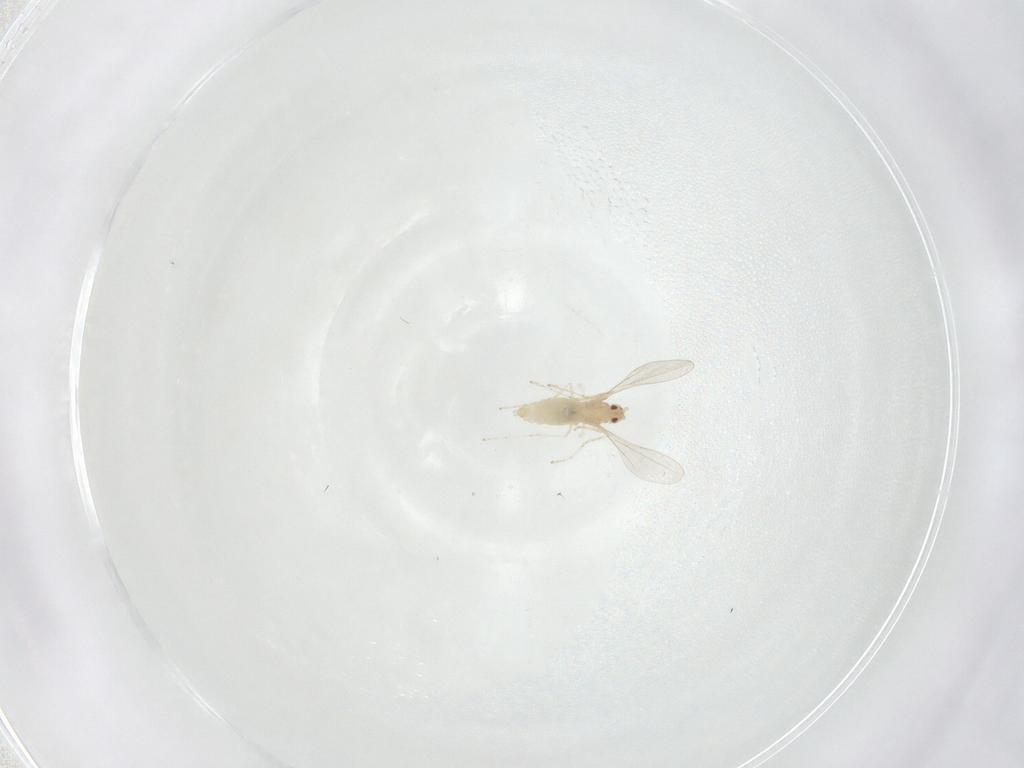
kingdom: Animalia
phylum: Arthropoda
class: Insecta
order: Diptera
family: Cecidomyiidae
